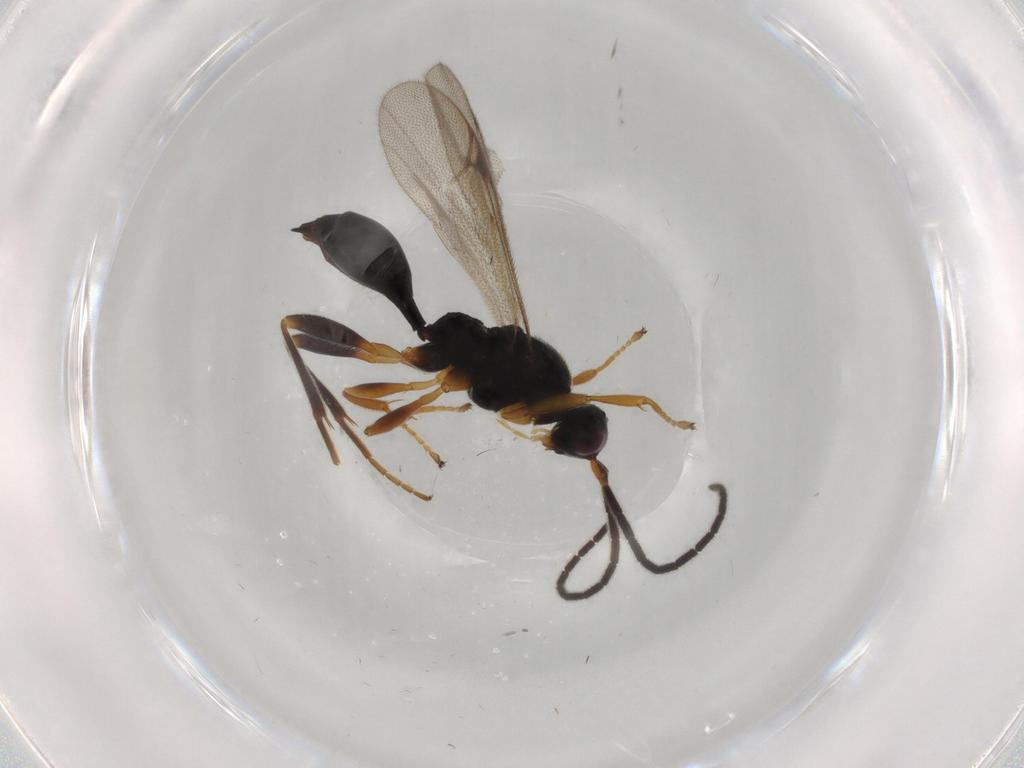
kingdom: Animalia
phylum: Arthropoda
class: Insecta
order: Hymenoptera
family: Proctotrupidae
